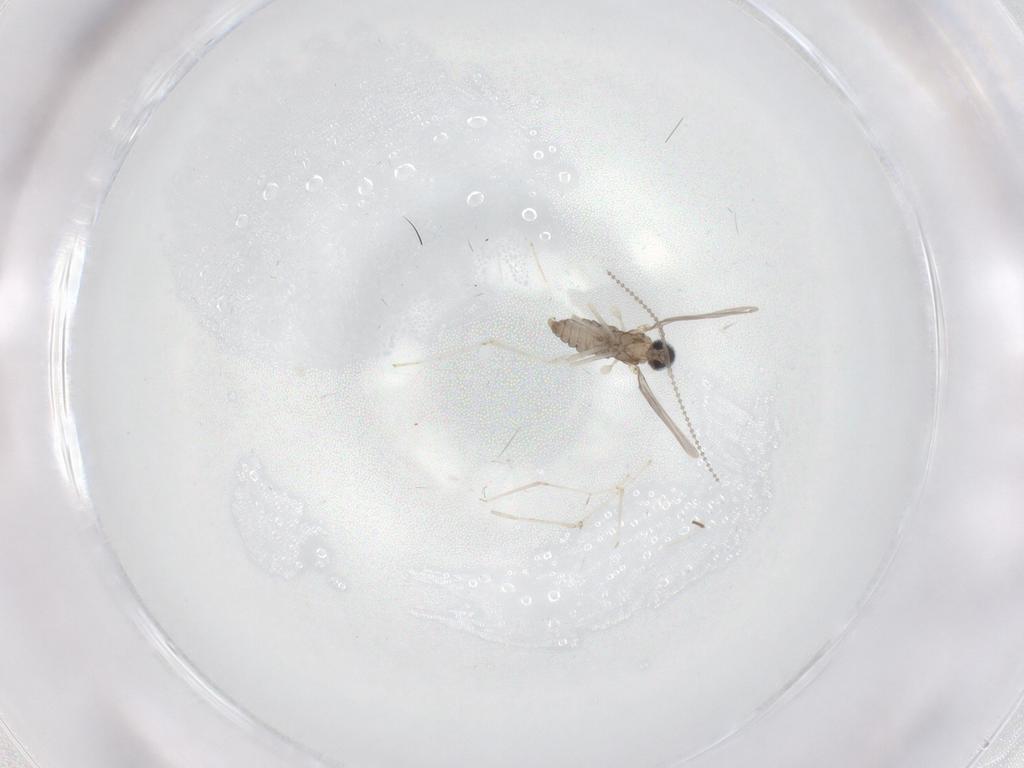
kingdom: Animalia
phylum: Arthropoda
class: Insecta
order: Diptera
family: Cecidomyiidae
